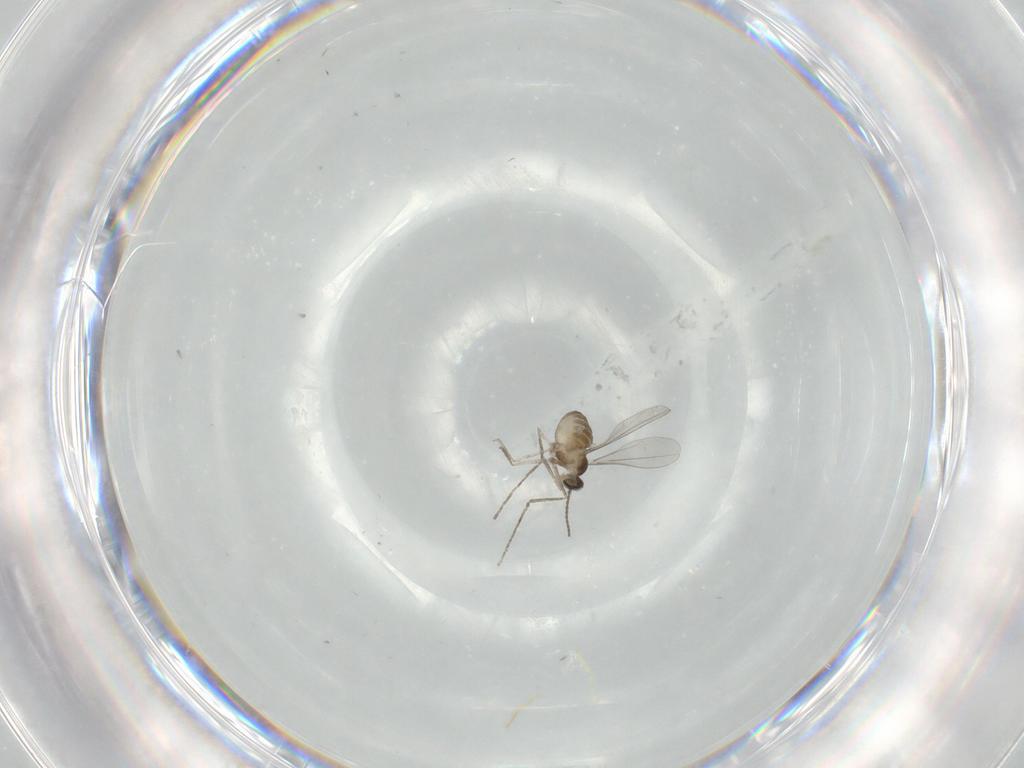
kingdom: Animalia
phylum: Arthropoda
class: Insecta
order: Diptera
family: Cecidomyiidae
